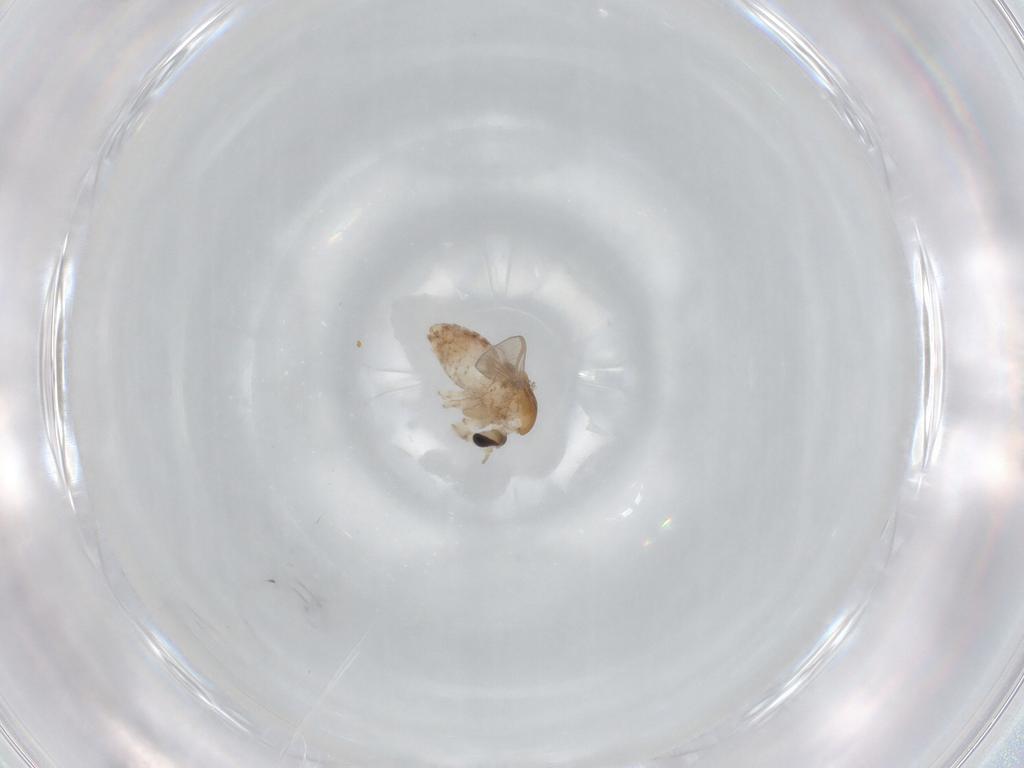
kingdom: Animalia
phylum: Arthropoda
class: Insecta
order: Diptera
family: Chironomidae
